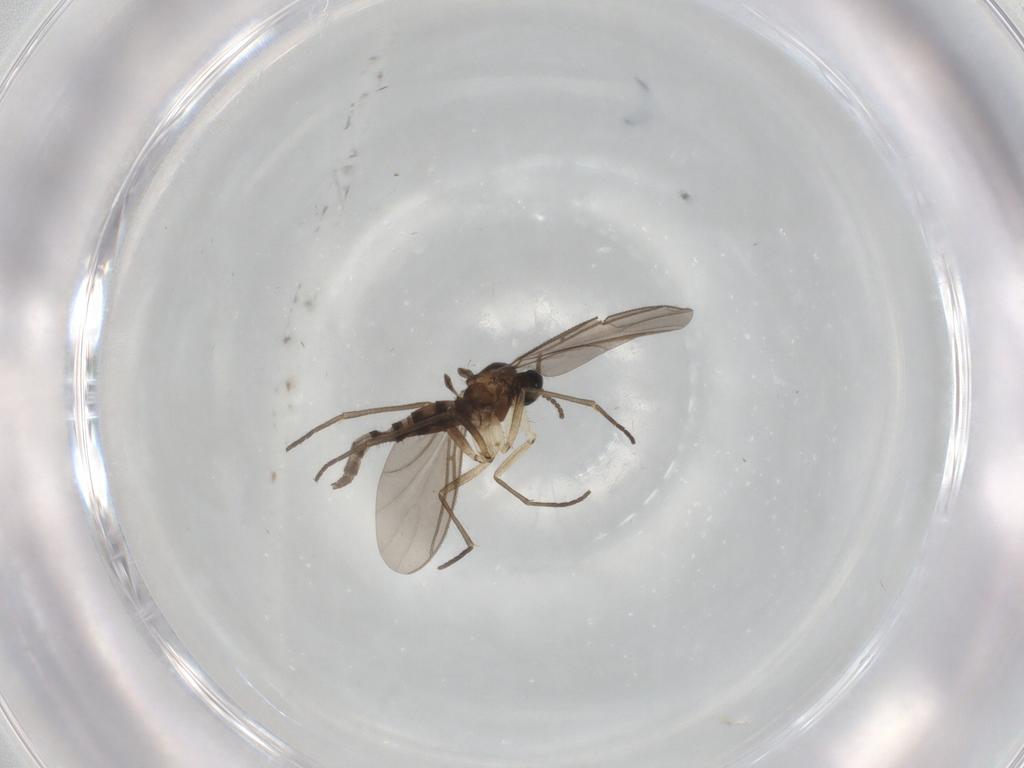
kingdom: Animalia
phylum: Arthropoda
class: Insecta
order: Diptera
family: Sciaridae
